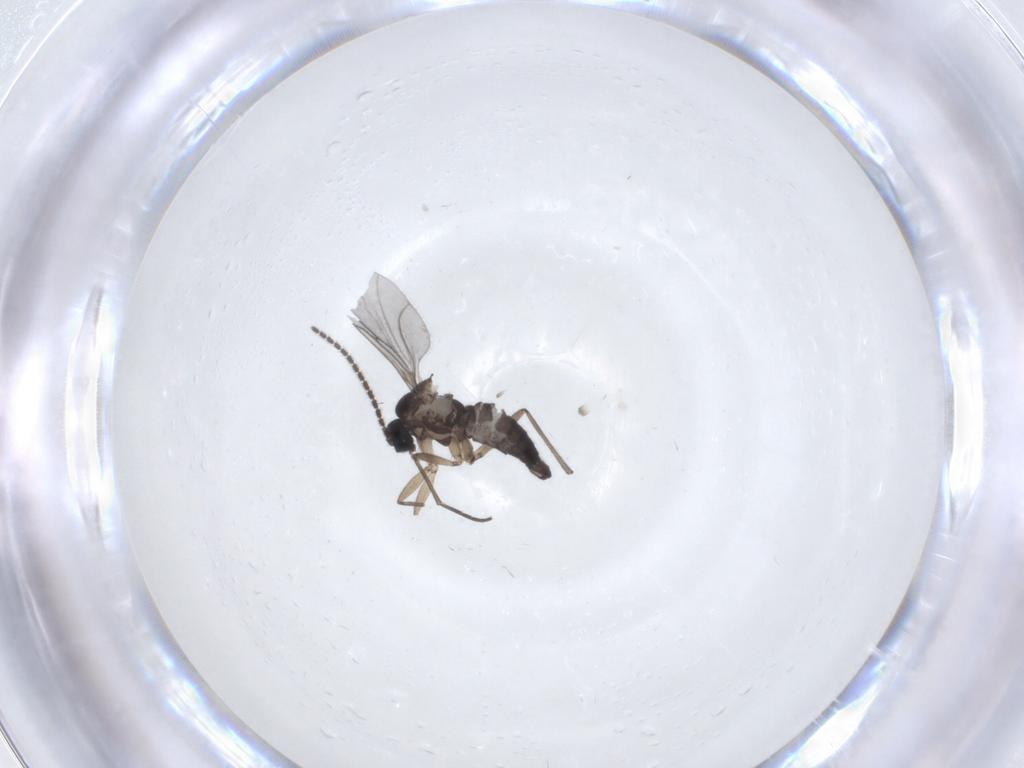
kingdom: Animalia
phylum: Arthropoda
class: Insecta
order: Diptera
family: Sciaridae
